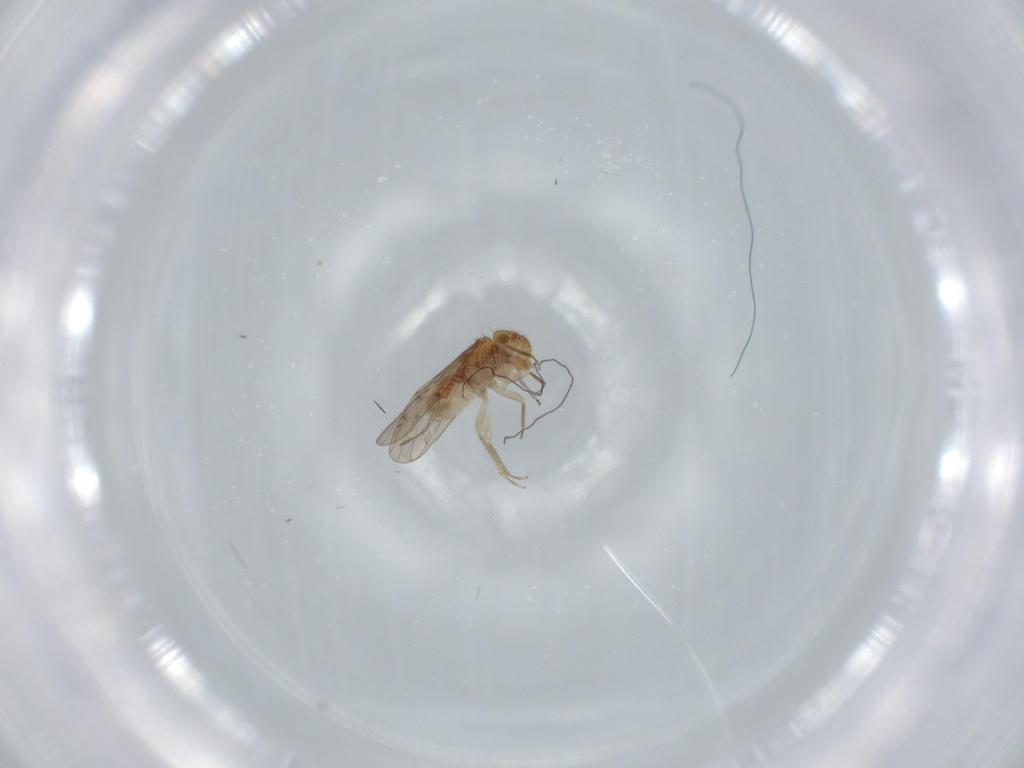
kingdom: Animalia
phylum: Arthropoda
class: Insecta
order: Psocodea
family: Ectopsocidae
